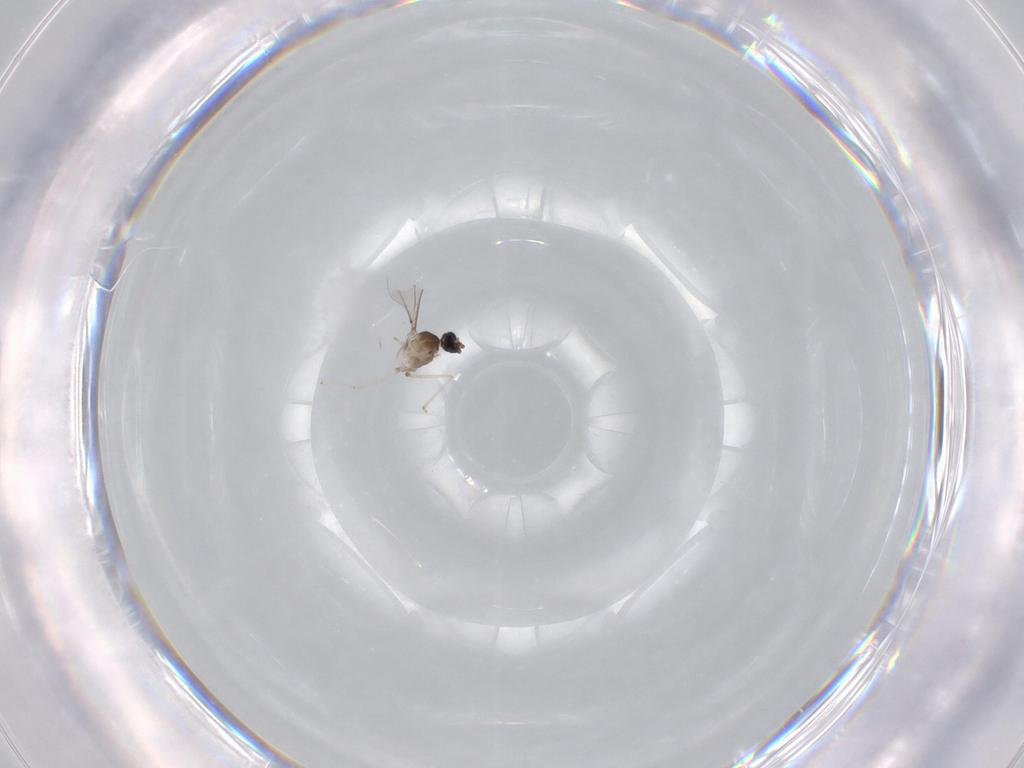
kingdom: Animalia
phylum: Arthropoda
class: Insecta
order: Diptera
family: Cecidomyiidae
